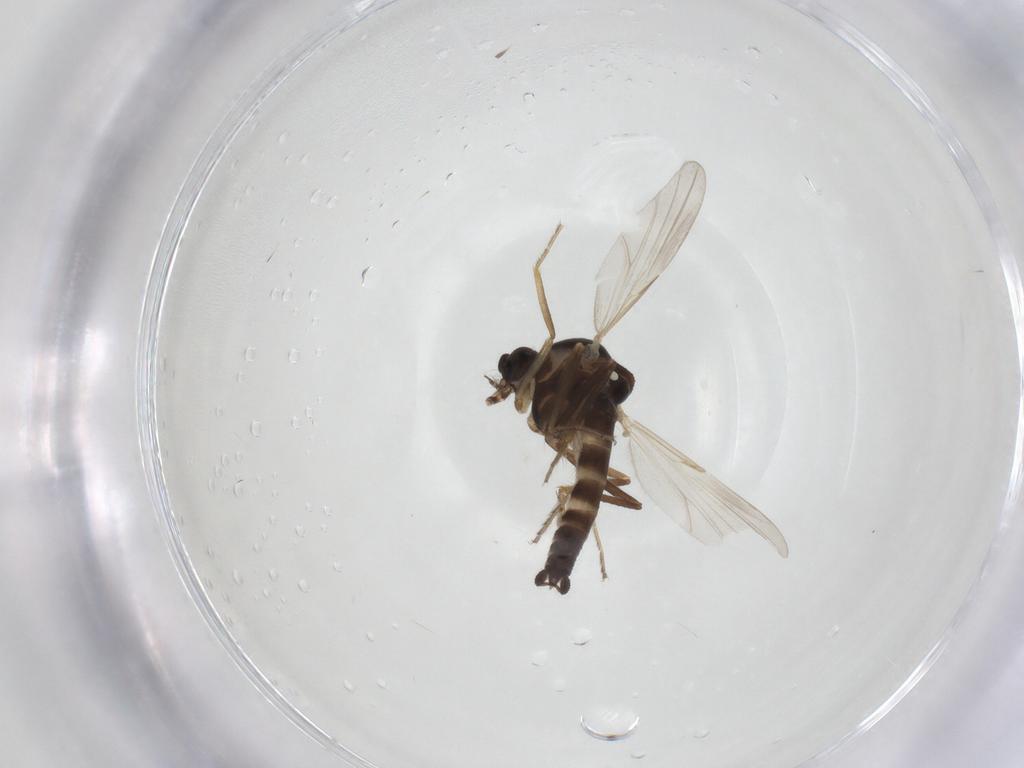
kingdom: Animalia
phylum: Arthropoda
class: Insecta
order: Diptera
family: Ceratopogonidae
